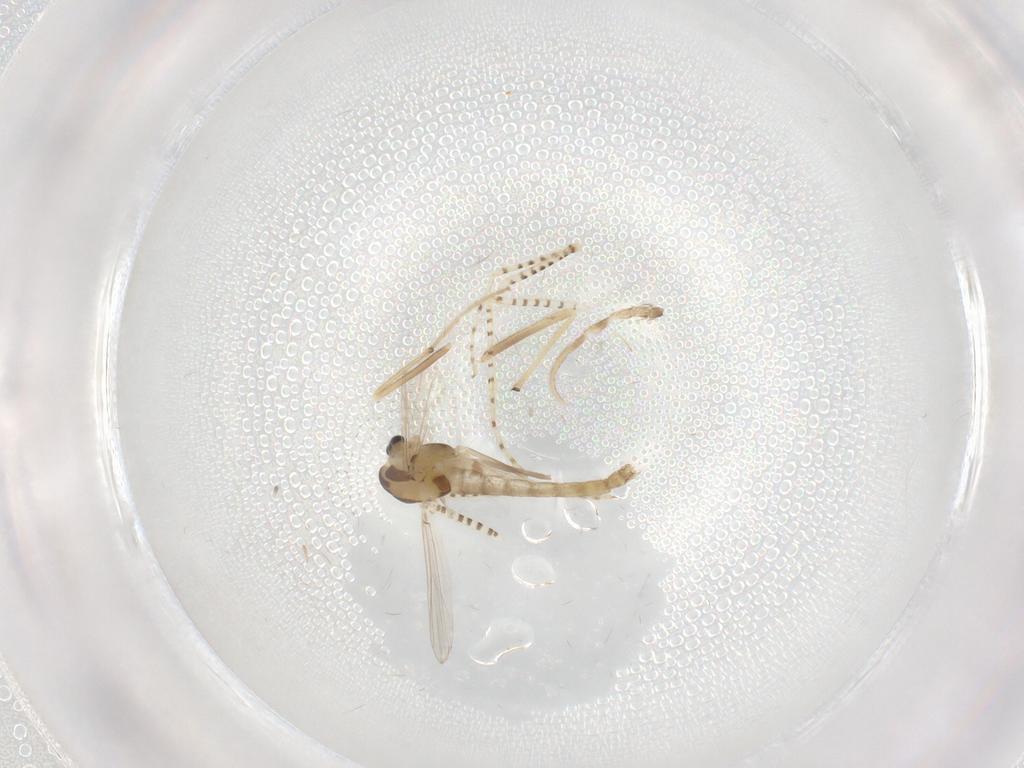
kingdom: Animalia
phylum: Arthropoda
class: Insecta
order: Diptera
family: Chaoboridae
